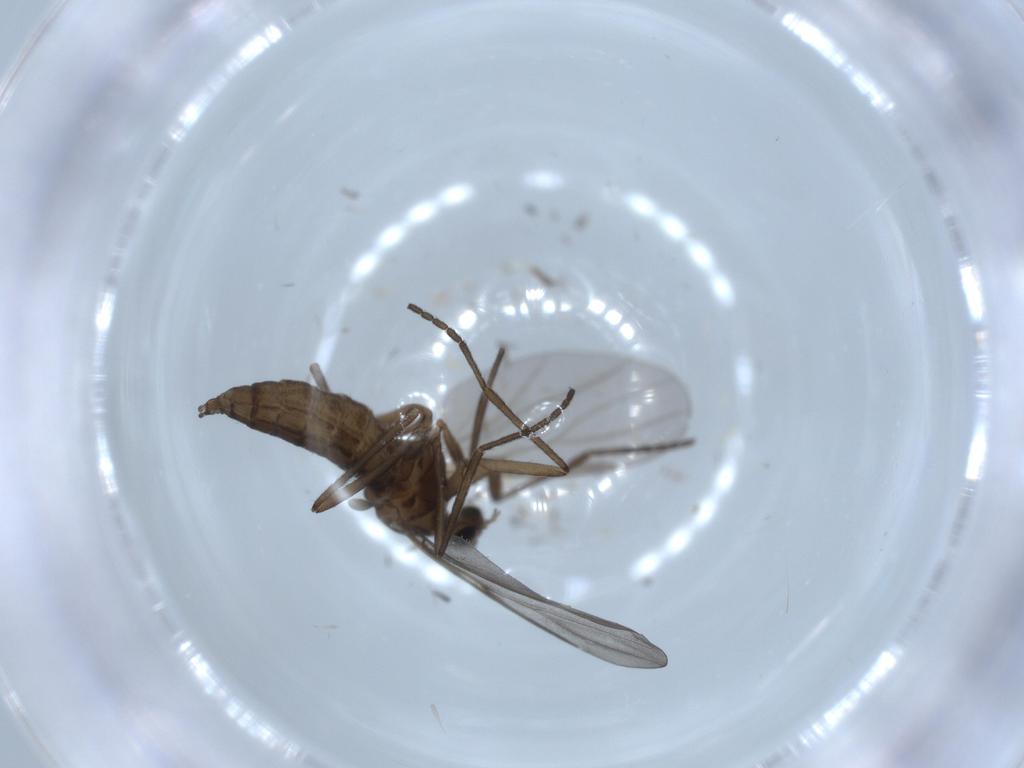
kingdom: Animalia
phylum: Arthropoda
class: Insecta
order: Diptera
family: Cecidomyiidae
